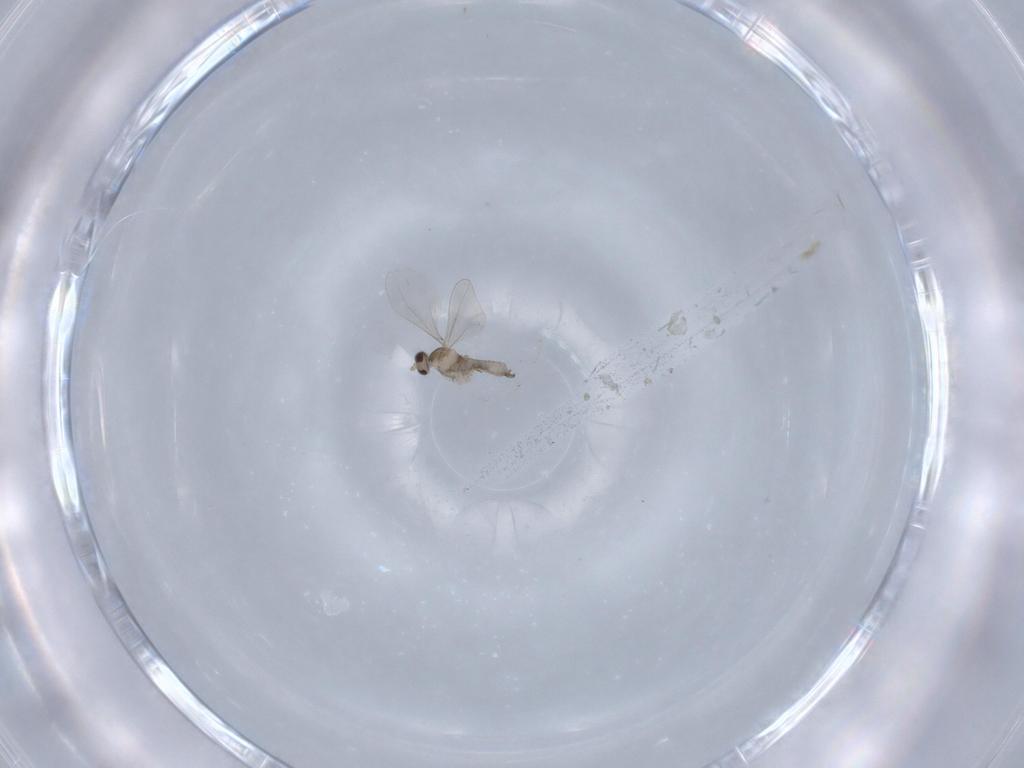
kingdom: Animalia
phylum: Arthropoda
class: Insecta
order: Diptera
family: Cecidomyiidae
